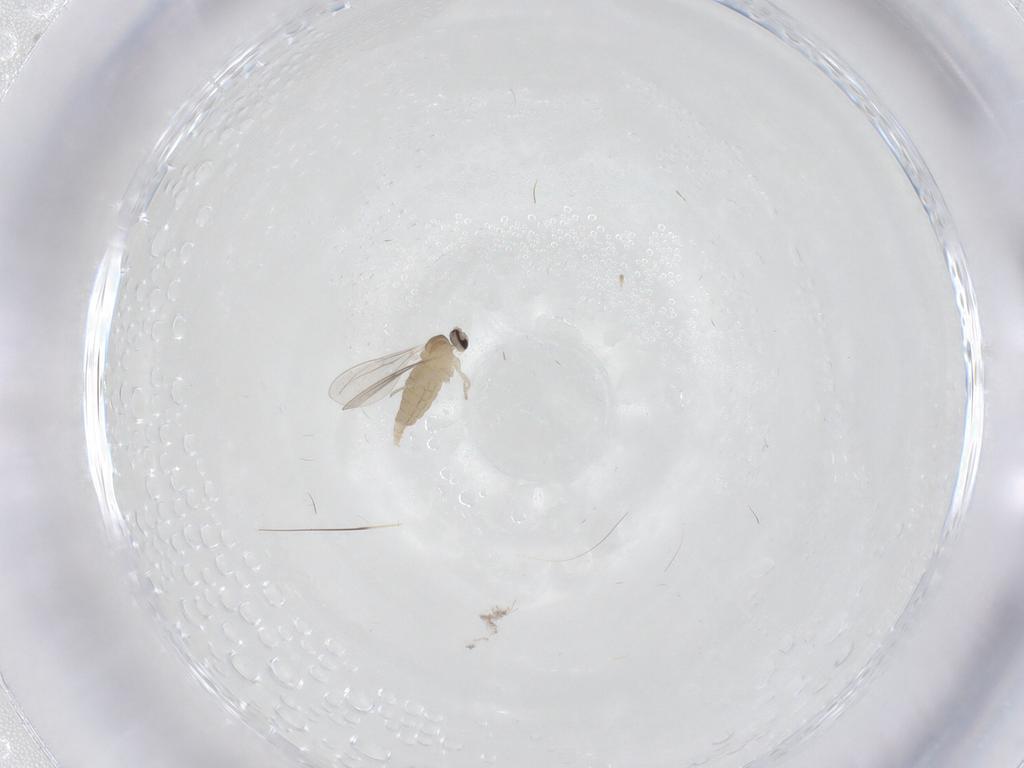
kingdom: Animalia
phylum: Arthropoda
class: Insecta
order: Diptera
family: Cecidomyiidae
